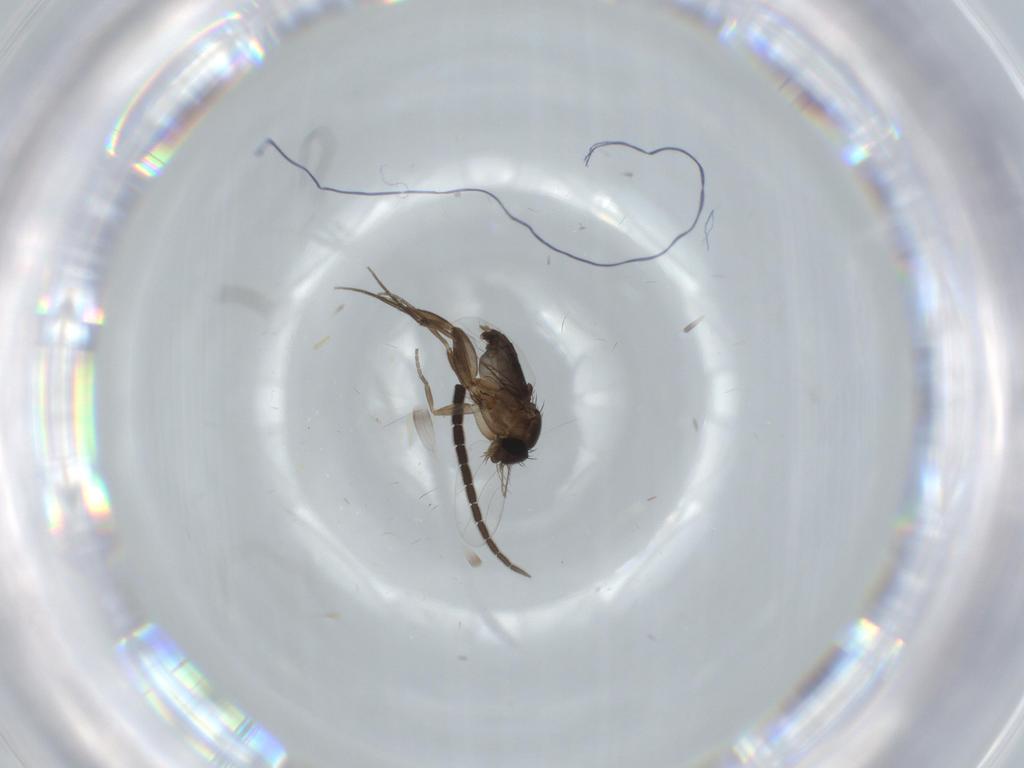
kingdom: Animalia
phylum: Arthropoda
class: Insecta
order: Diptera
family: Phoridae
